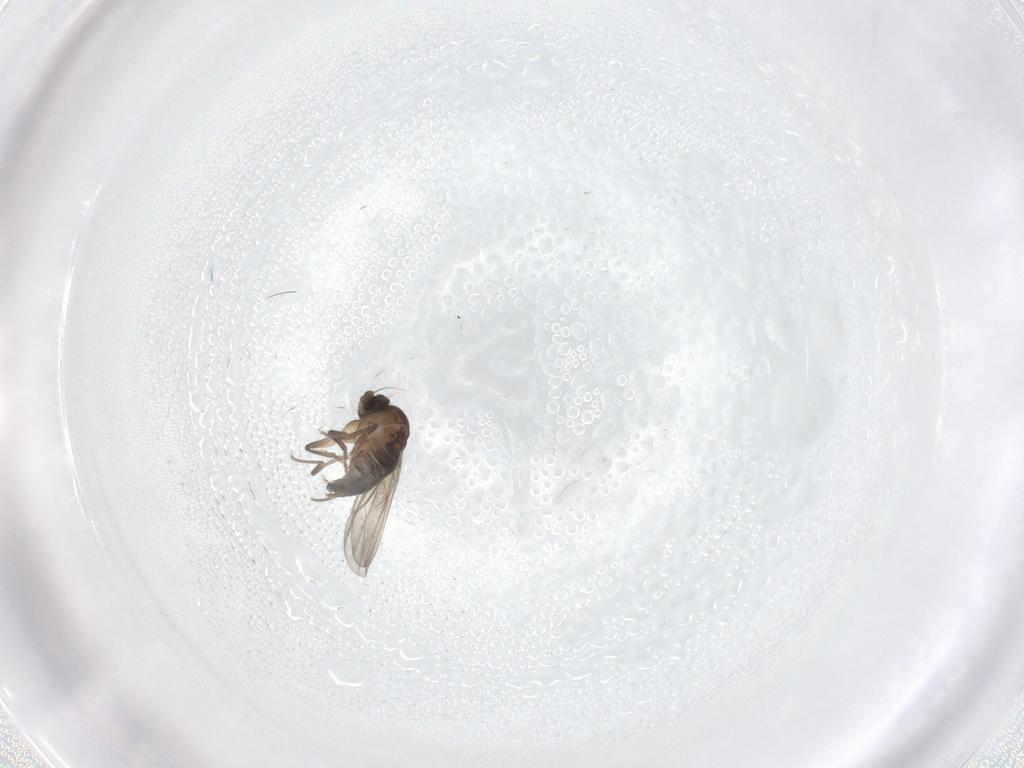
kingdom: Animalia
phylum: Arthropoda
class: Insecta
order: Diptera
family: Phoridae
